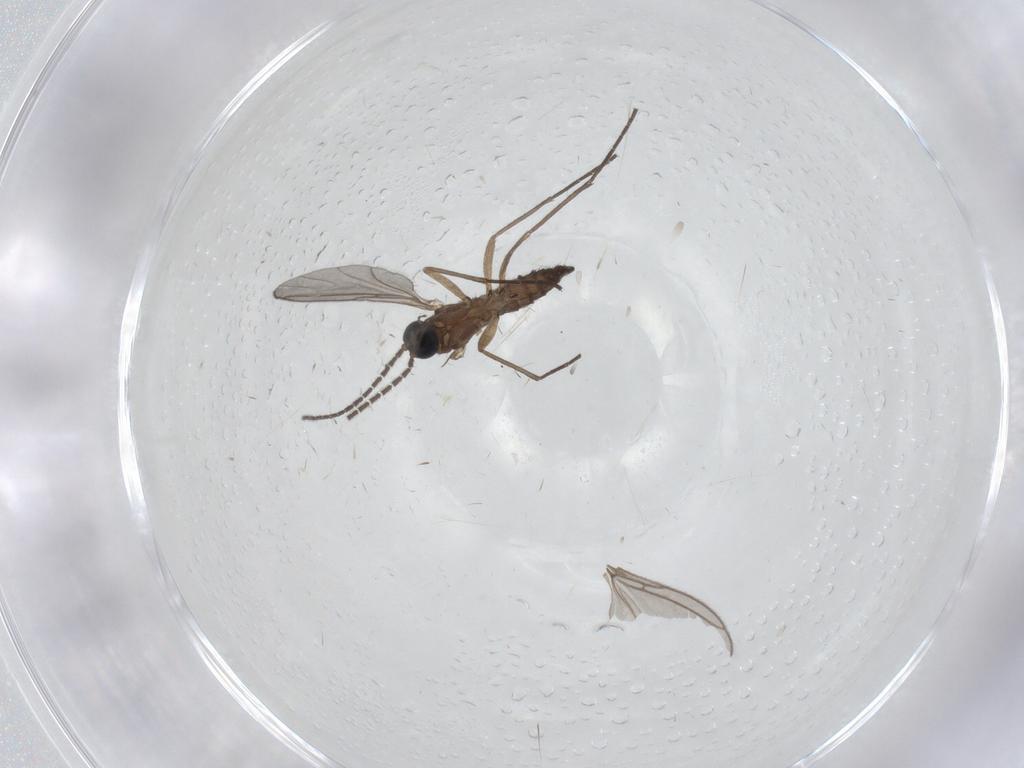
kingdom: Animalia
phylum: Arthropoda
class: Insecta
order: Diptera
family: Sciaridae
